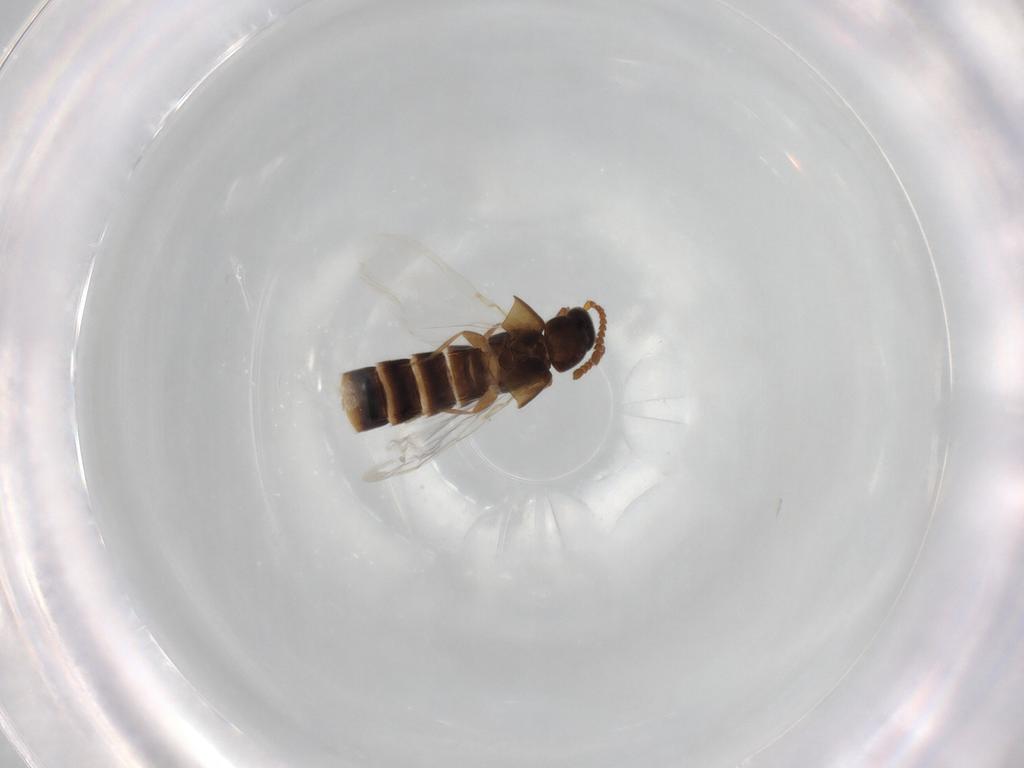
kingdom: Animalia
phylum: Arthropoda
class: Insecta
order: Coleoptera
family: Staphylinidae
